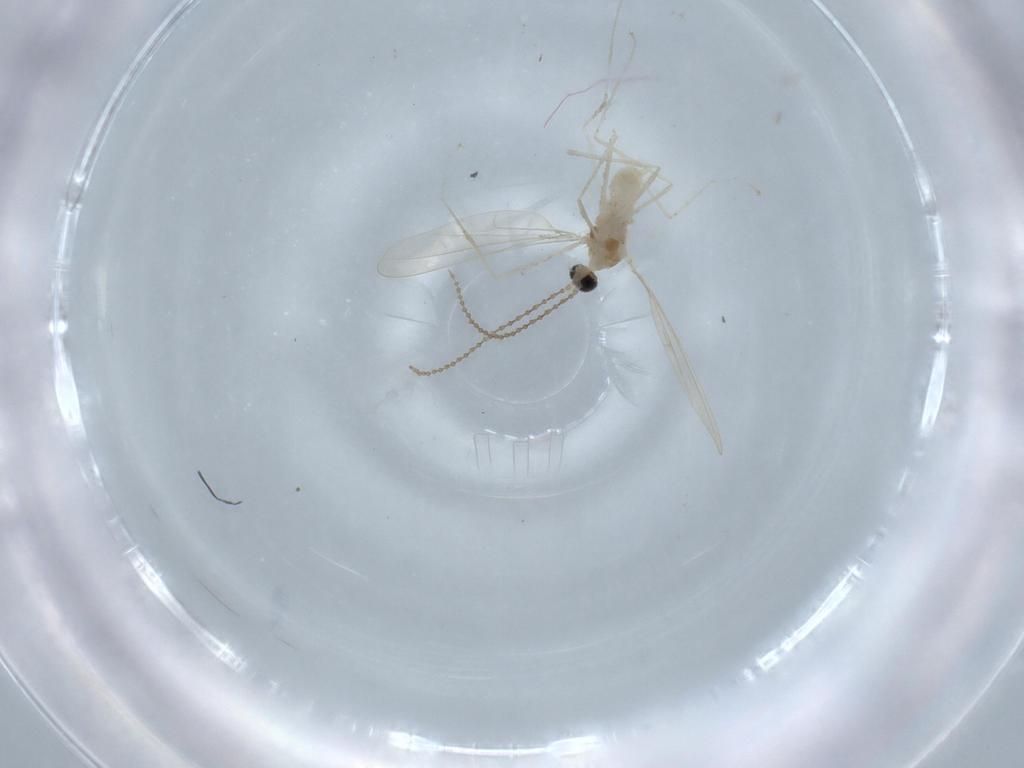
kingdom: Animalia
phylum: Arthropoda
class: Insecta
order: Diptera
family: Cecidomyiidae
